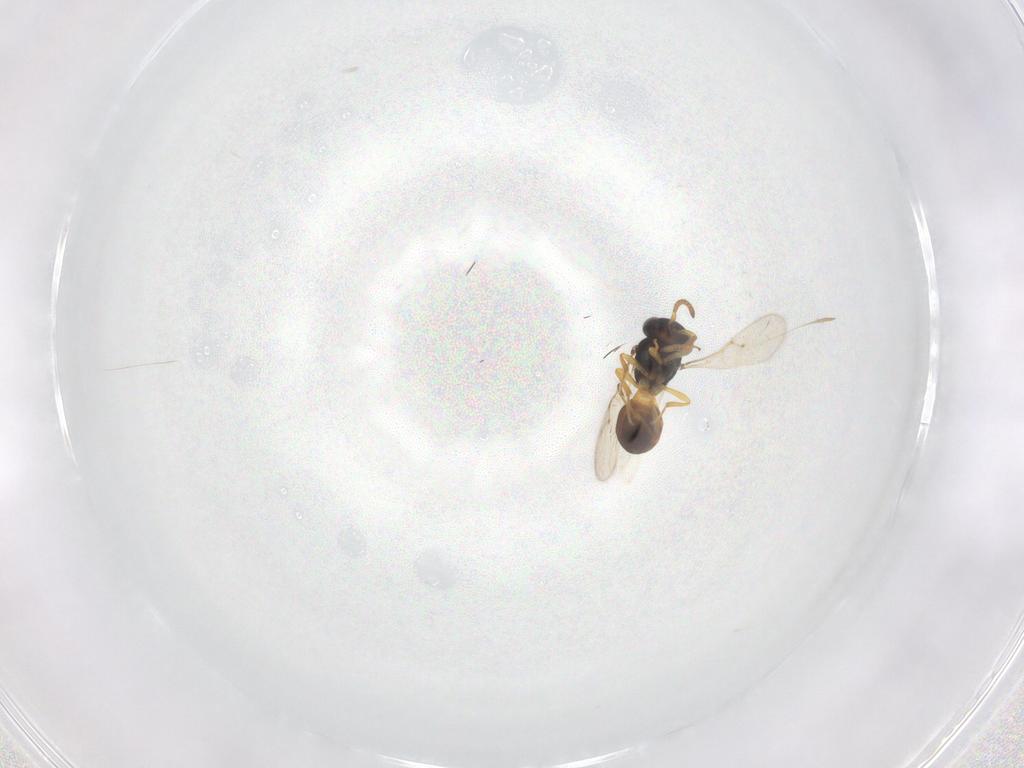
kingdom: Animalia
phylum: Arthropoda
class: Insecta
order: Hymenoptera
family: Scelionidae
